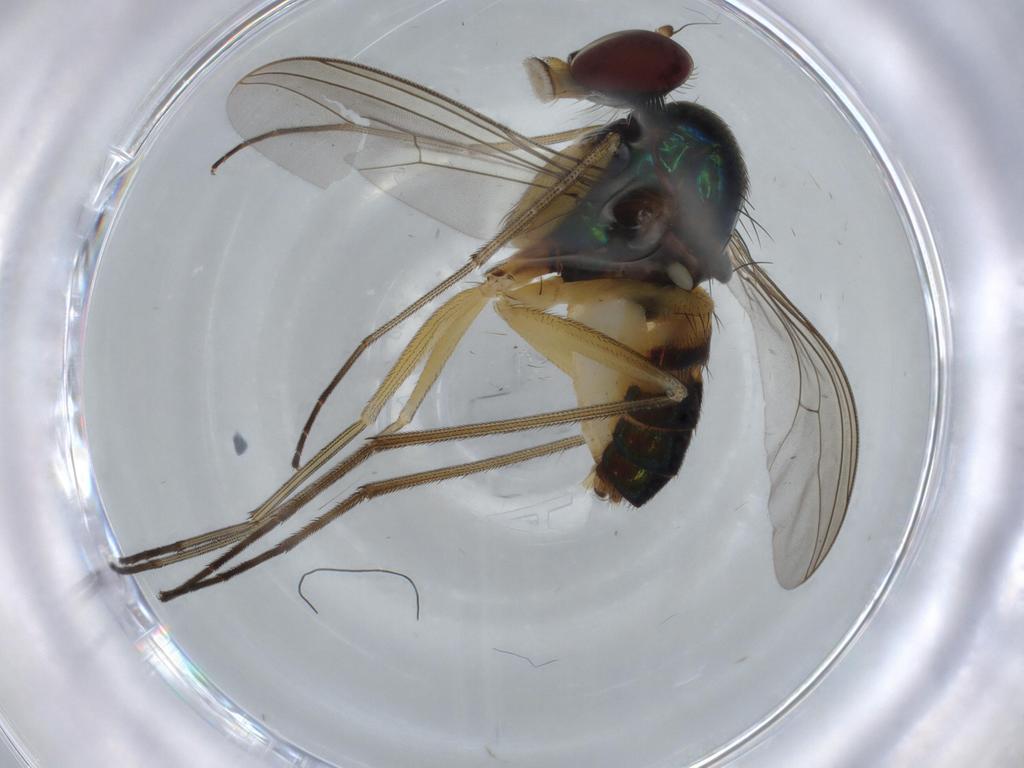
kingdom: Animalia
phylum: Arthropoda
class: Insecta
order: Diptera
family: Dolichopodidae
